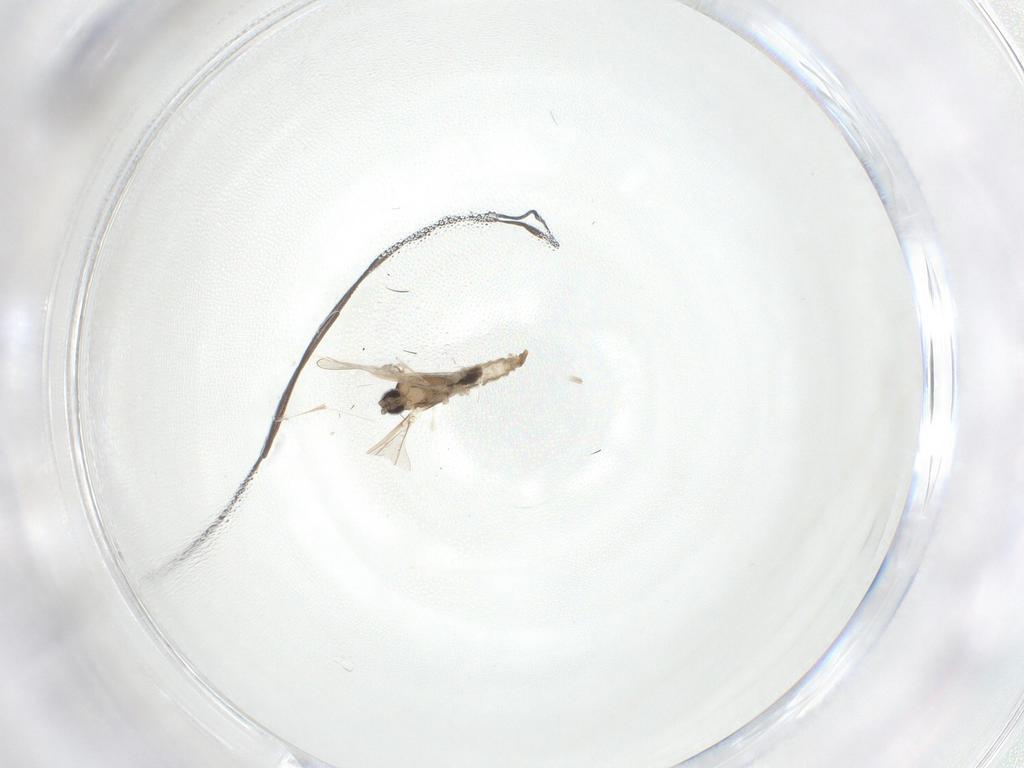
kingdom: Animalia
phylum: Arthropoda
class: Insecta
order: Diptera
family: Cecidomyiidae
